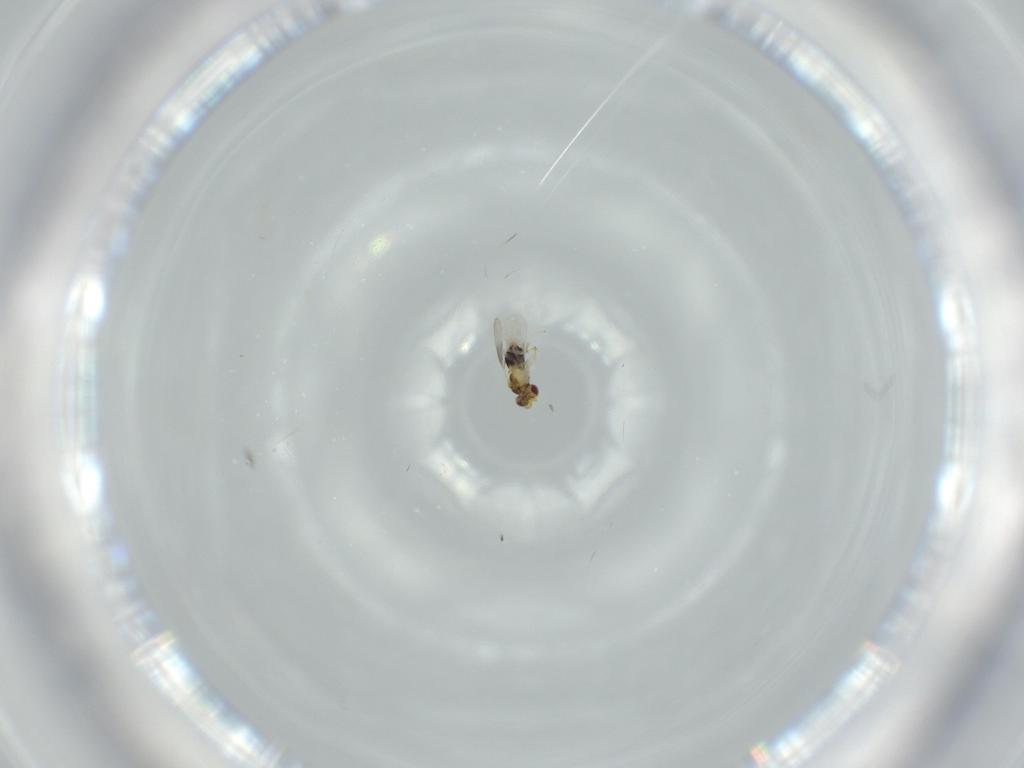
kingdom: Animalia
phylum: Arthropoda
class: Insecta
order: Hymenoptera
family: Aphelinidae
